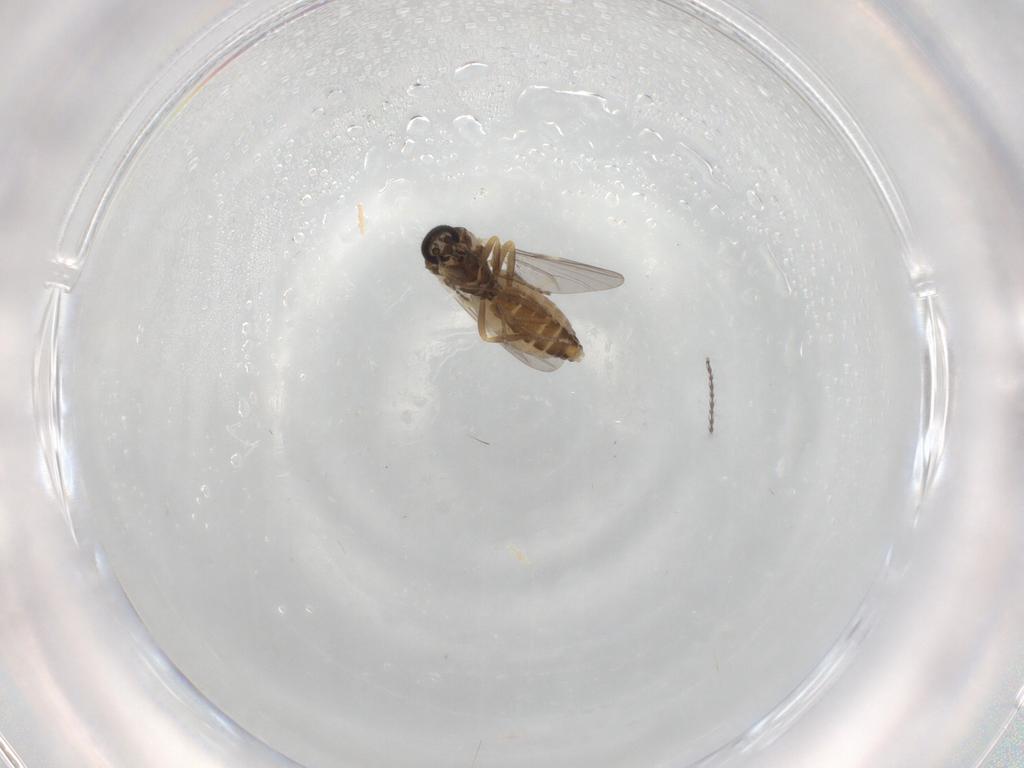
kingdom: Animalia
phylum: Arthropoda
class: Insecta
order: Diptera
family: Ceratopogonidae
